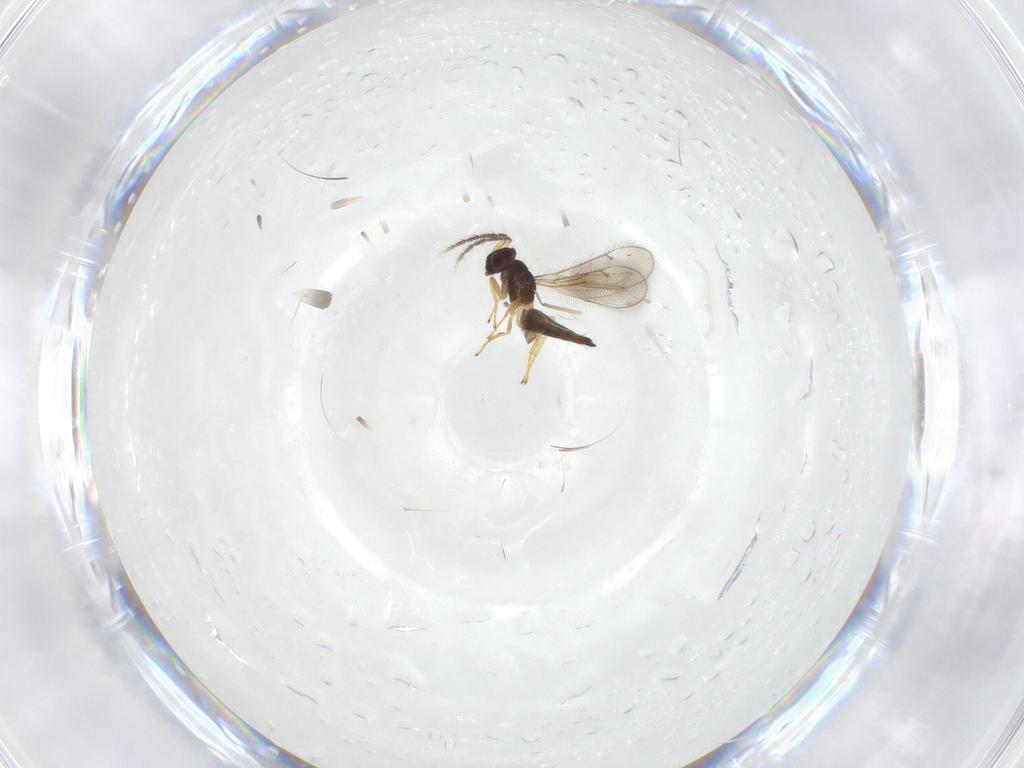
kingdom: Animalia
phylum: Arthropoda
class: Insecta
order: Hymenoptera
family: Eulophidae
